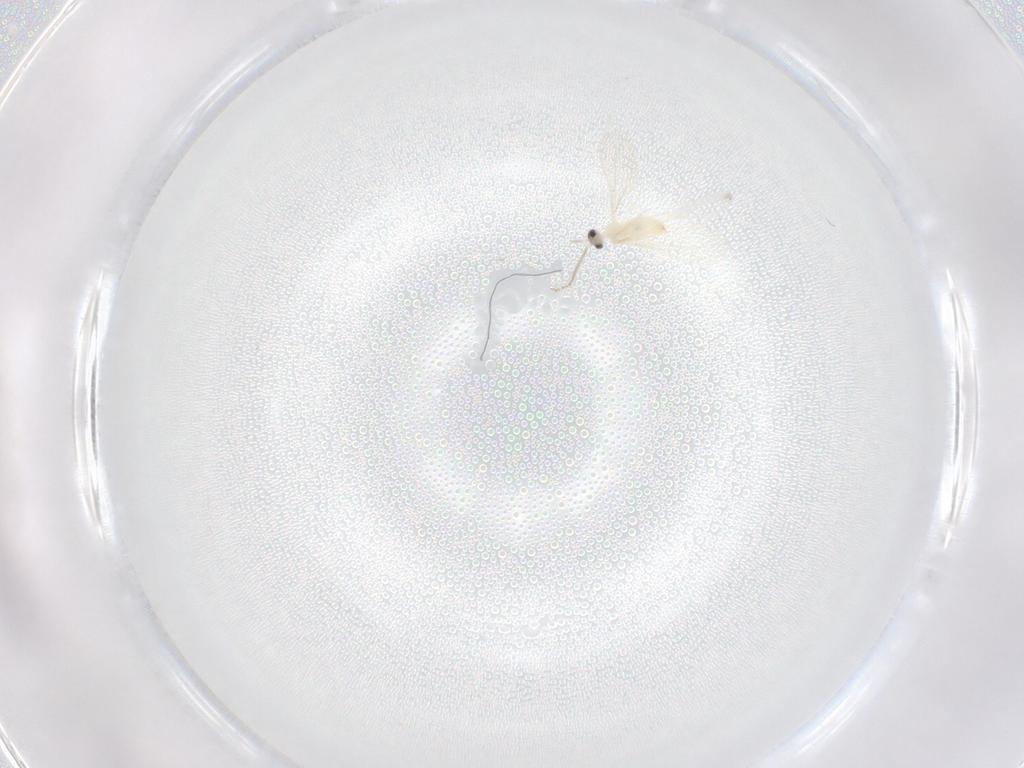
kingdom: Animalia
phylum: Arthropoda
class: Insecta
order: Diptera
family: Cecidomyiidae
